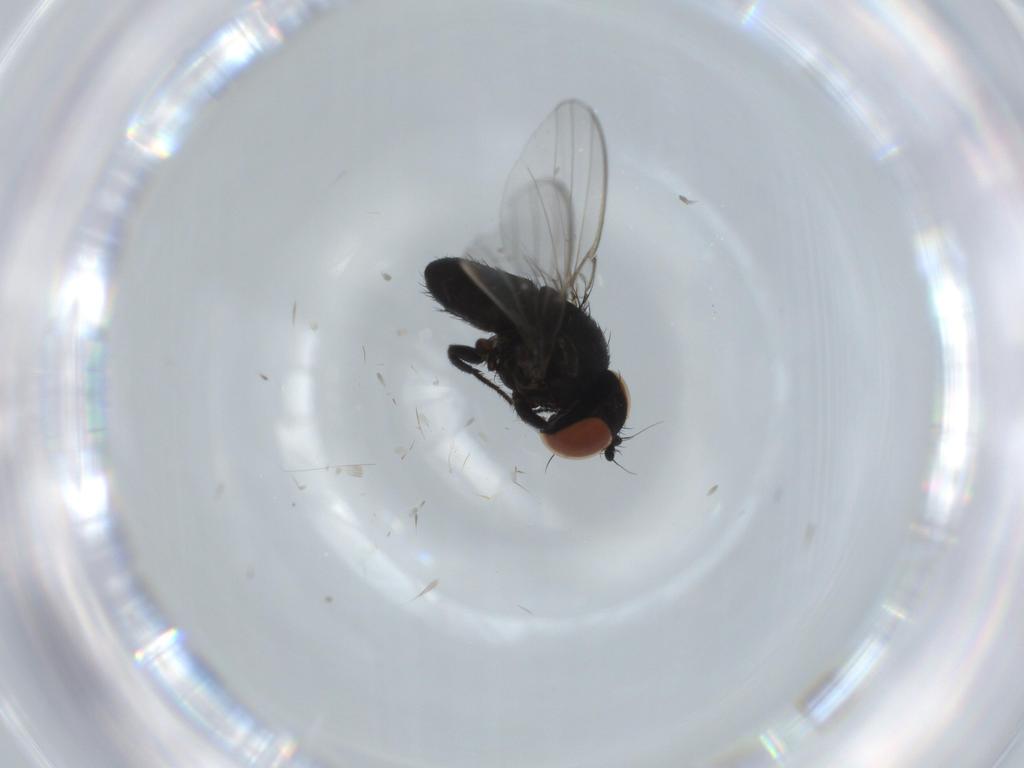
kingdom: Animalia
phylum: Arthropoda
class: Insecta
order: Diptera
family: Milichiidae
